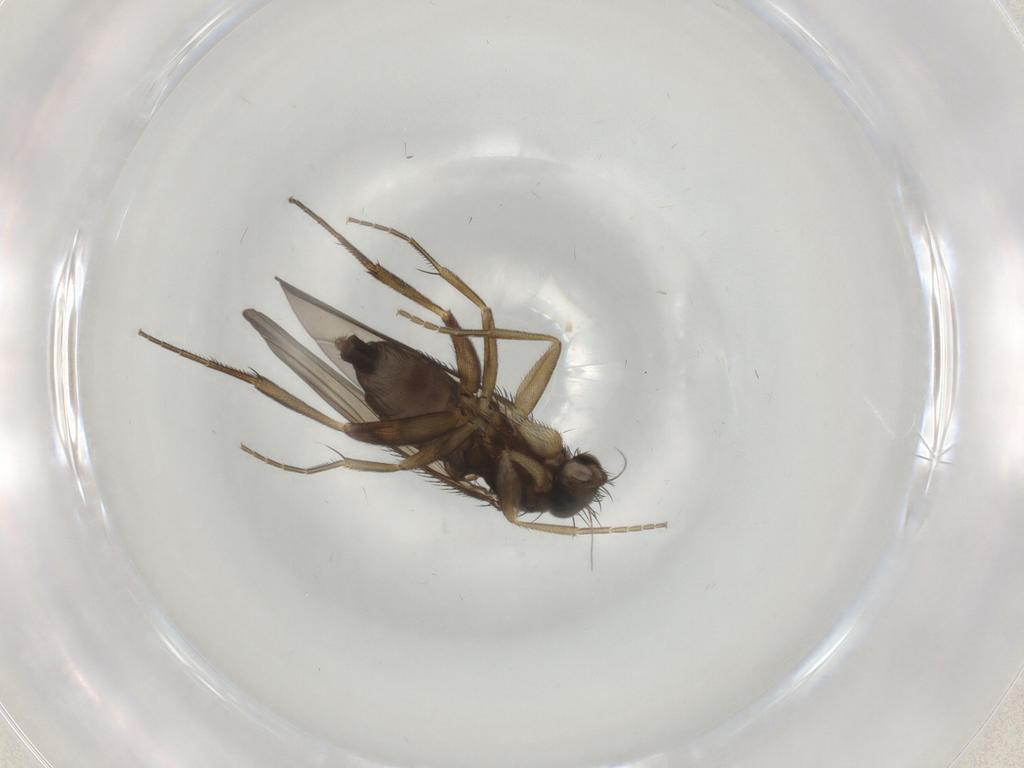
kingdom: Animalia
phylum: Arthropoda
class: Insecta
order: Diptera
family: Phoridae
